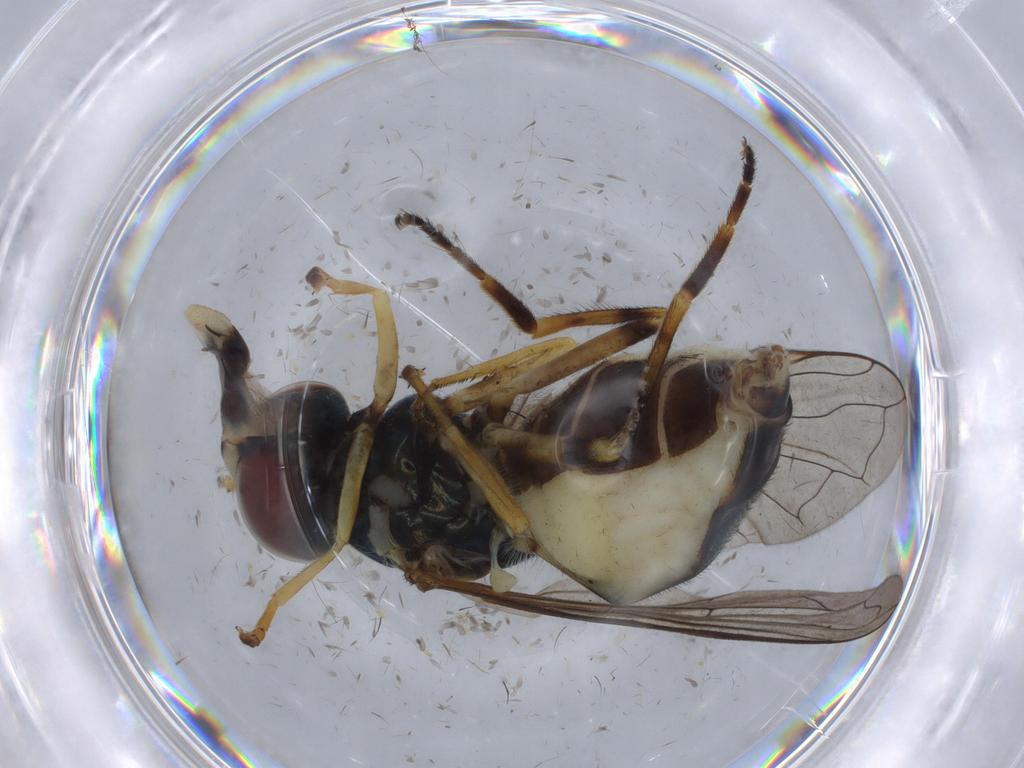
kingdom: Animalia
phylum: Arthropoda
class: Insecta
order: Diptera
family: Syrphidae
